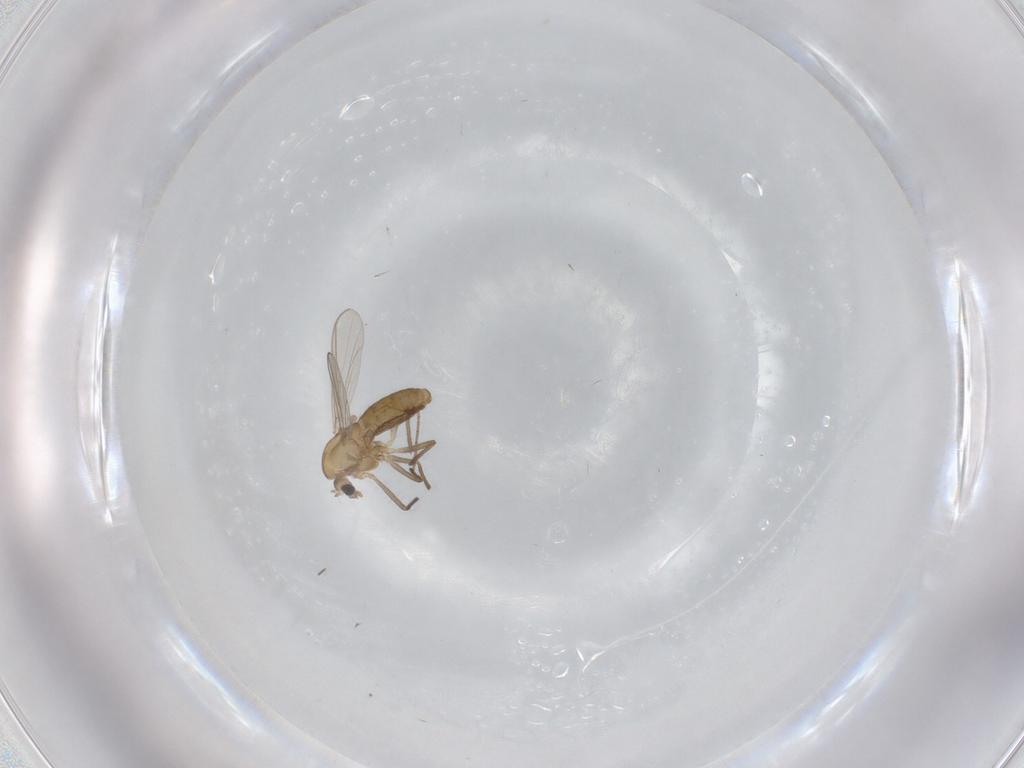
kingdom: Animalia
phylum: Arthropoda
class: Insecta
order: Diptera
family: Chironomidae
